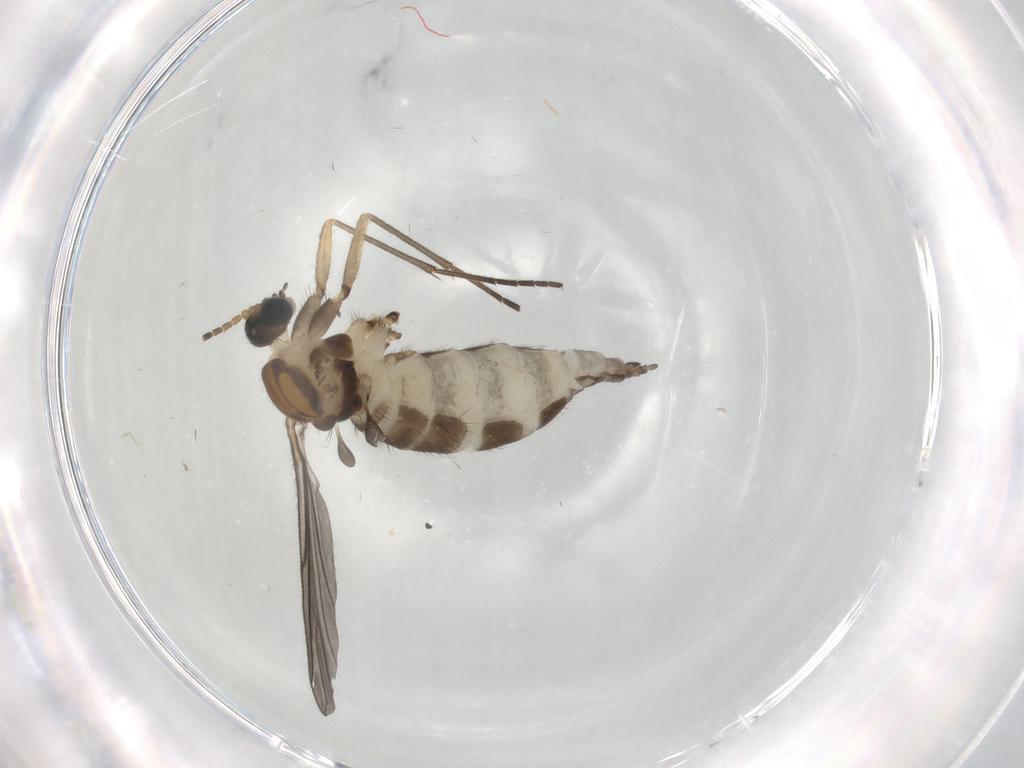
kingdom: Animalia
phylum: Arthropoda
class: Insecta
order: Diptera
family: Sciaridae
